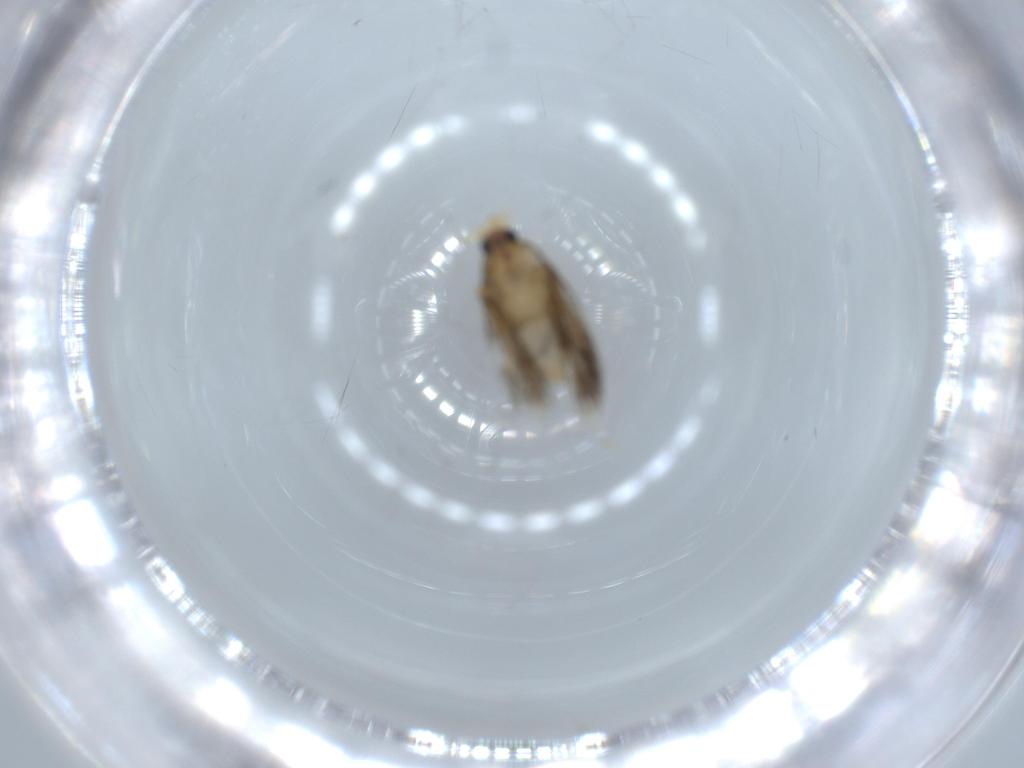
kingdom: Animalia
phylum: Arthropoda
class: Insecta
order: Lepidoptera
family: Copromorphidae
